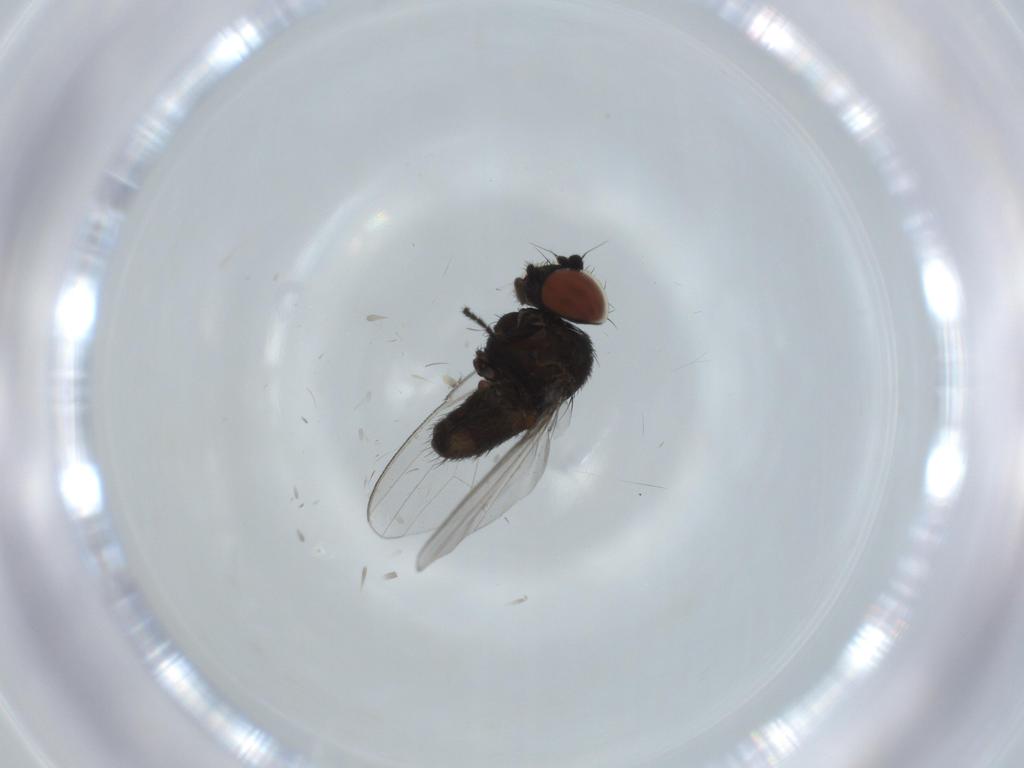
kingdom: Animalia
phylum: Arthropoda
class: Insecta
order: Diptera
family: Milichiidae
